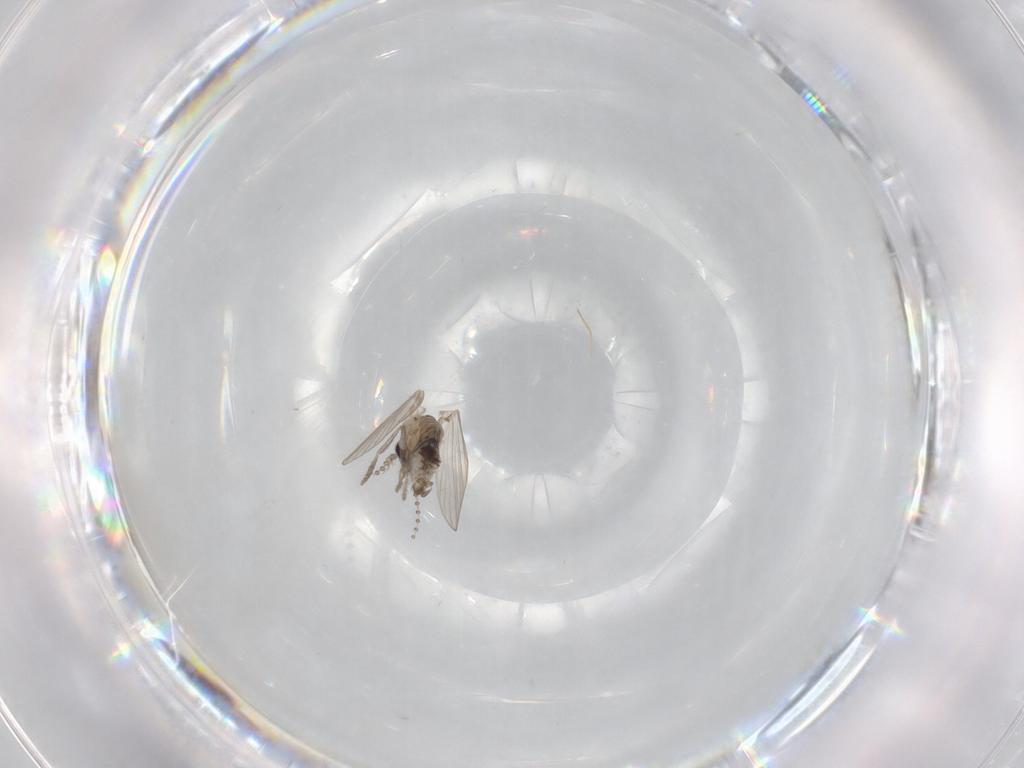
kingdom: Animalia
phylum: Arthropoda
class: Insecta
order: Diptera
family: Psychodidae
